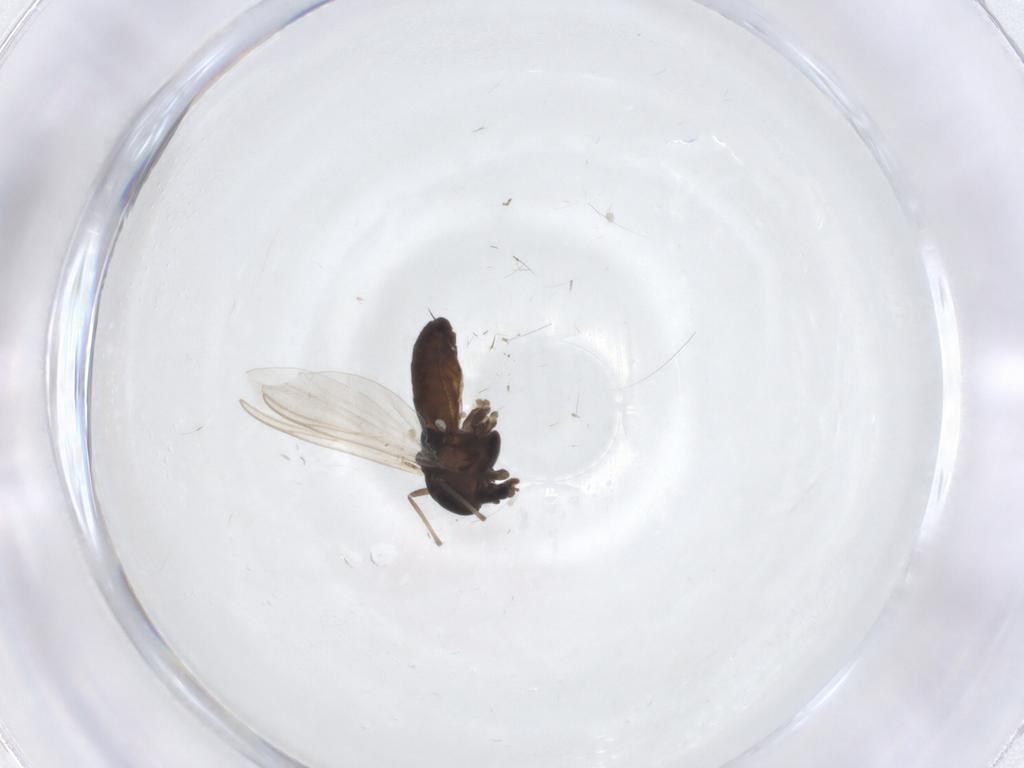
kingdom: Animalia
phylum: Arthropoda
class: Insecta
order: Diptera
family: Chironomidae
